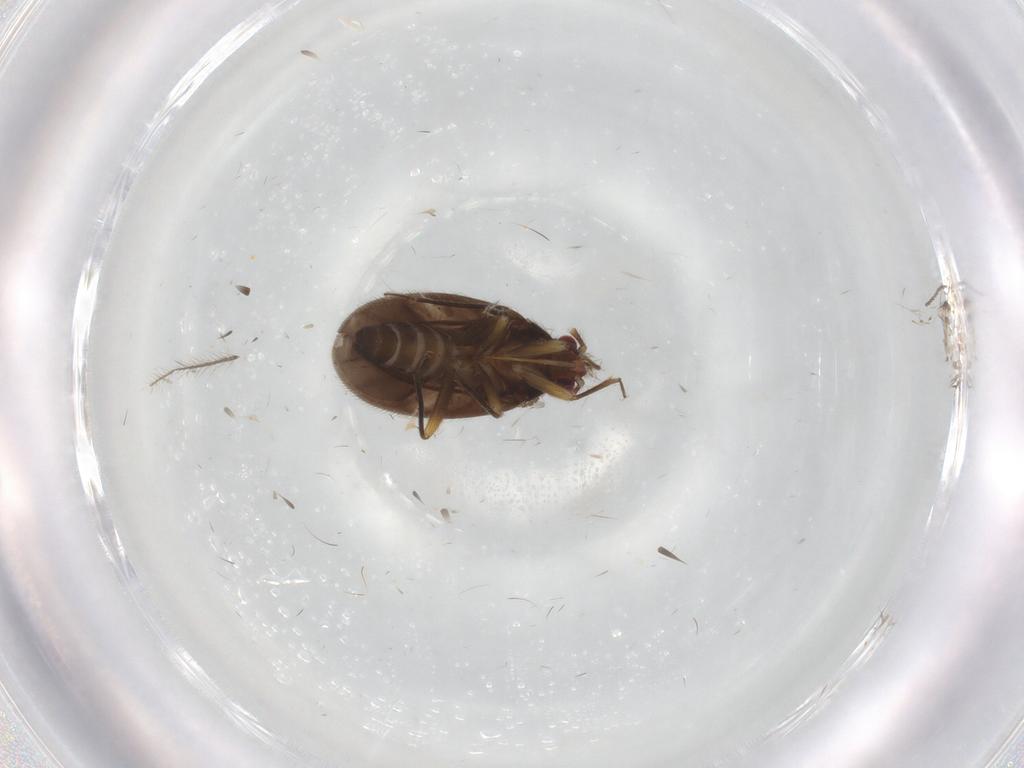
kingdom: Animalia
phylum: Arthropoda
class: Insecta
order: Hemiptera
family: Ceratocombidae
